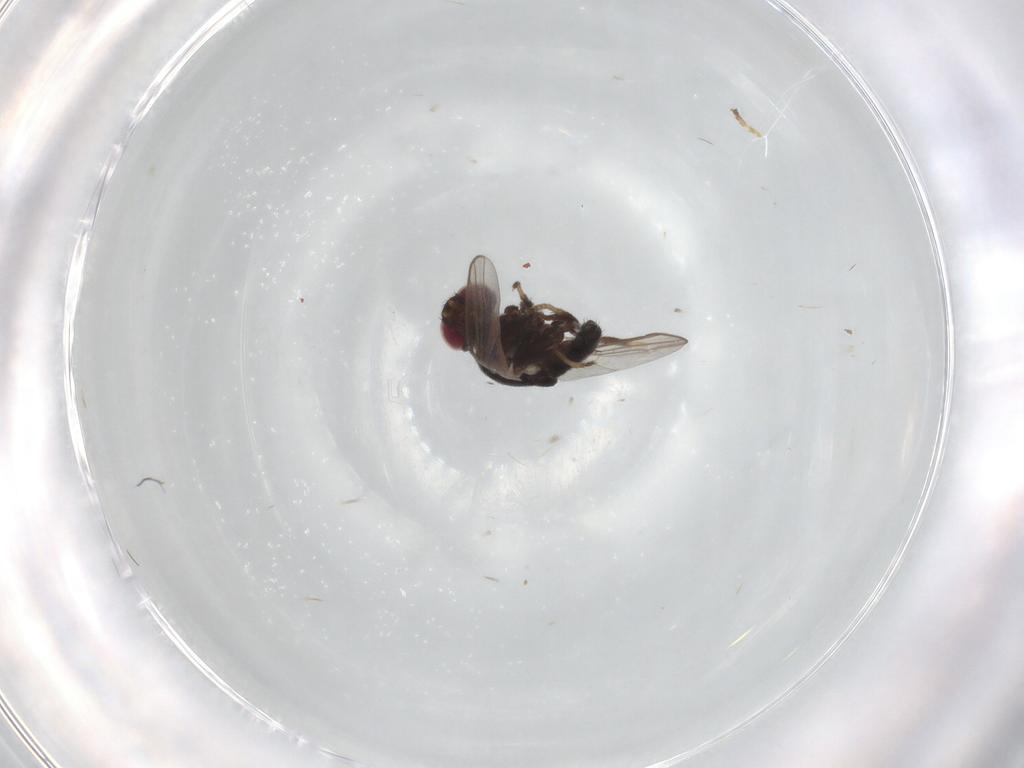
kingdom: Animalia
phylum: Arthropoda
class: Insecta
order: Diptera
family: Chloropidae
